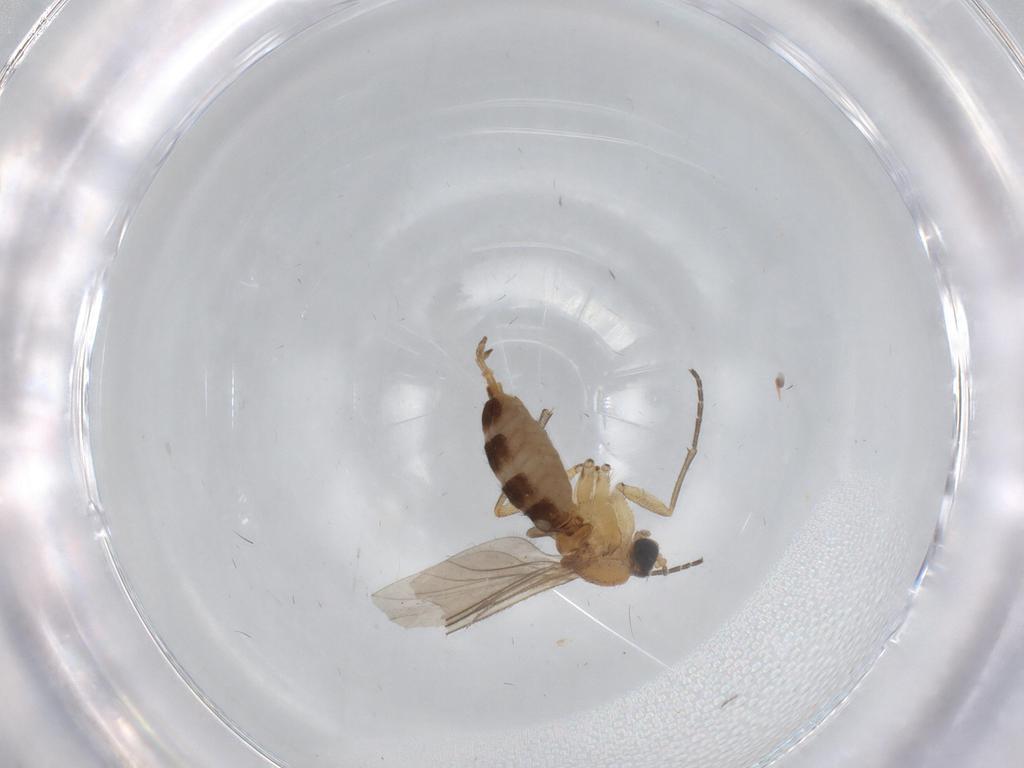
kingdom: Animalia
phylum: Arthropoda
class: Insecta
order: Diptera
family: Sciaridae
